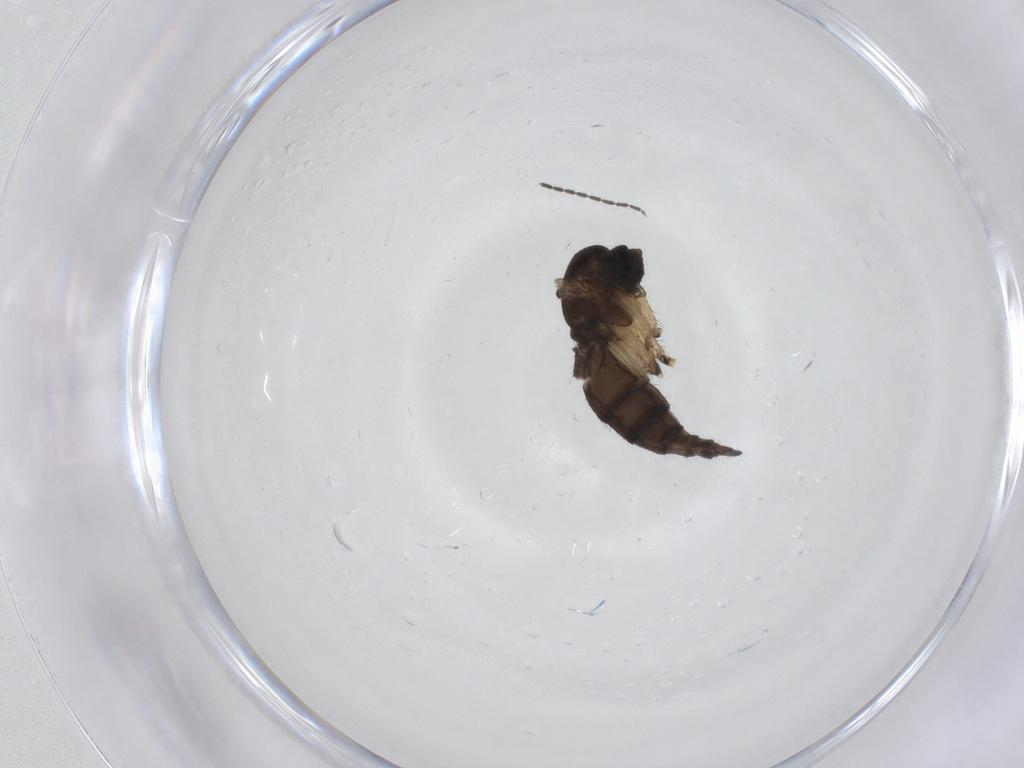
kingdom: Animalia
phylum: Arthropoda
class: Insecta
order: Diptera
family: Sciaridae
